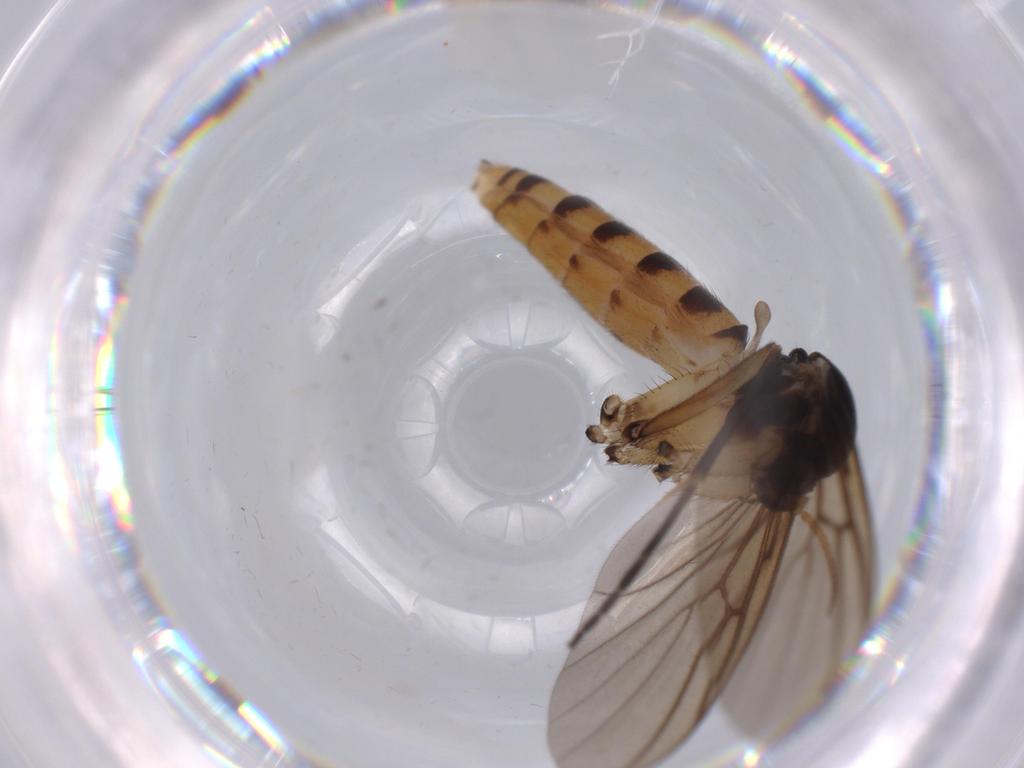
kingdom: Animalia
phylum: Arthropoda
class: Insecta
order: Diptera
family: Mycetophilidae
